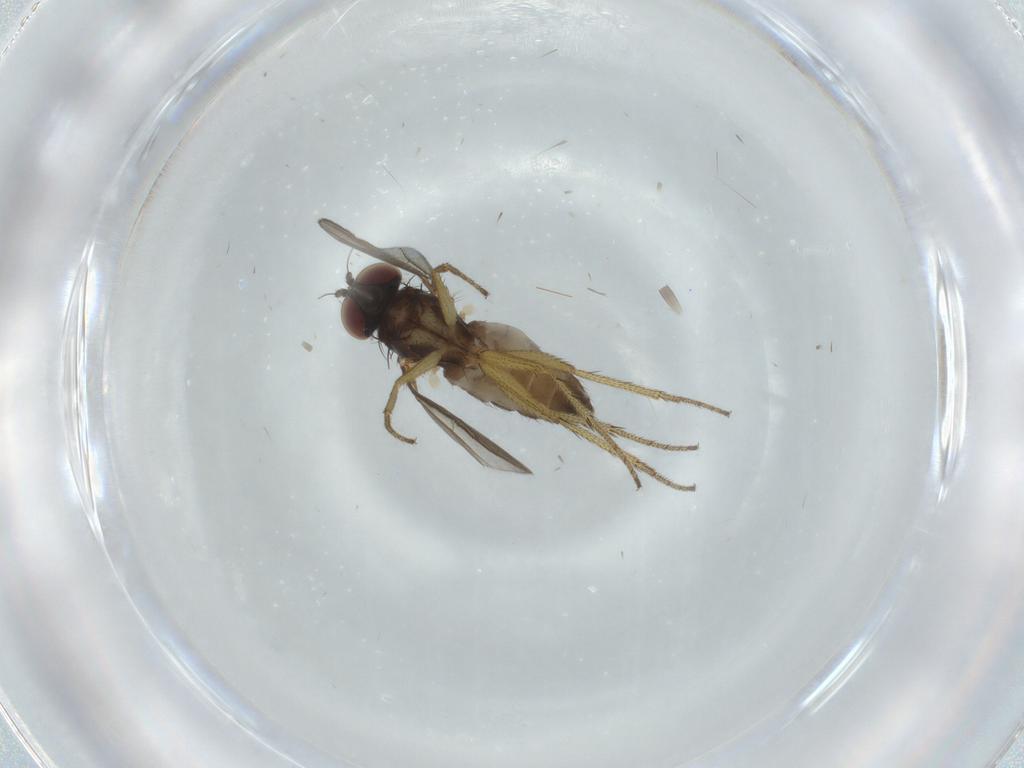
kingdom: Animalia
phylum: Arthropoda
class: Insecta
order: Diptera
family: Dolichopodidae
